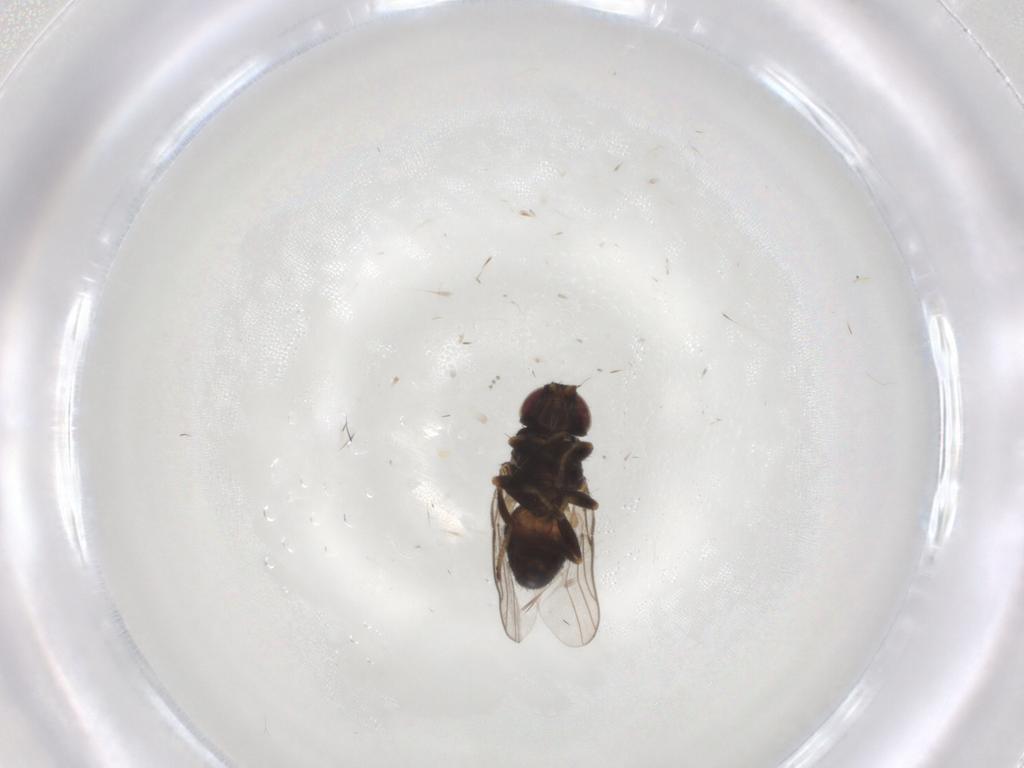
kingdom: Animalia
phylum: Arthropoda
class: Insecta
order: Diptera
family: Chloropidae
